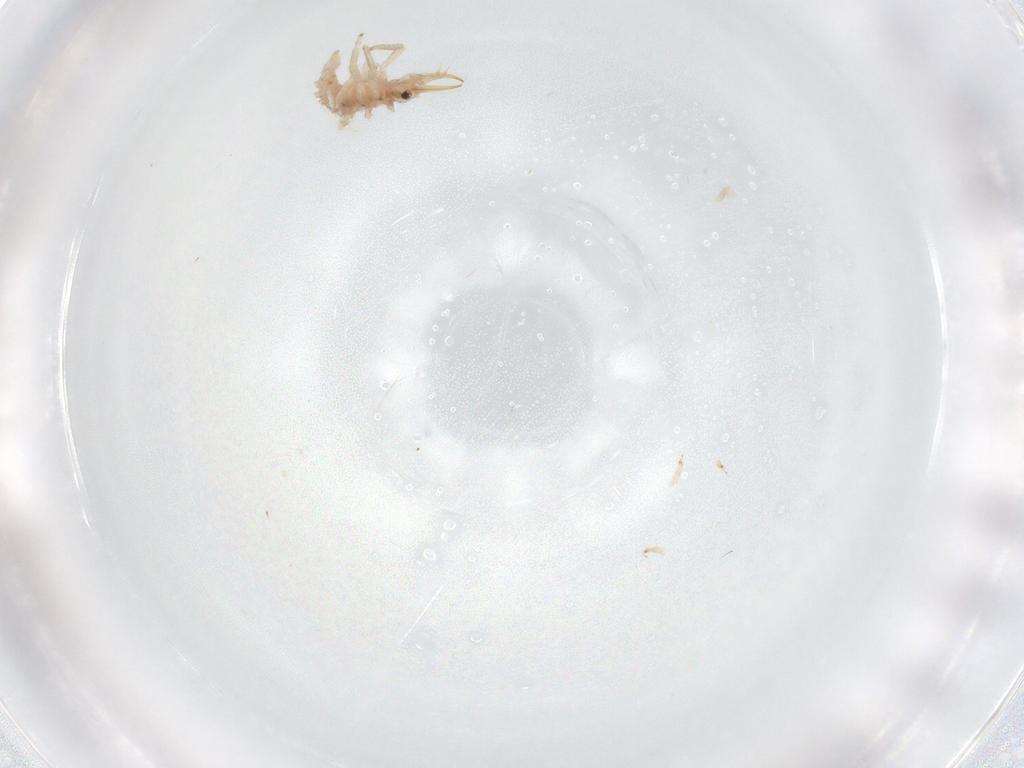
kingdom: Animalia
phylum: Arthropoda
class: Insecta
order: Neuroptera
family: Chrysopidae
